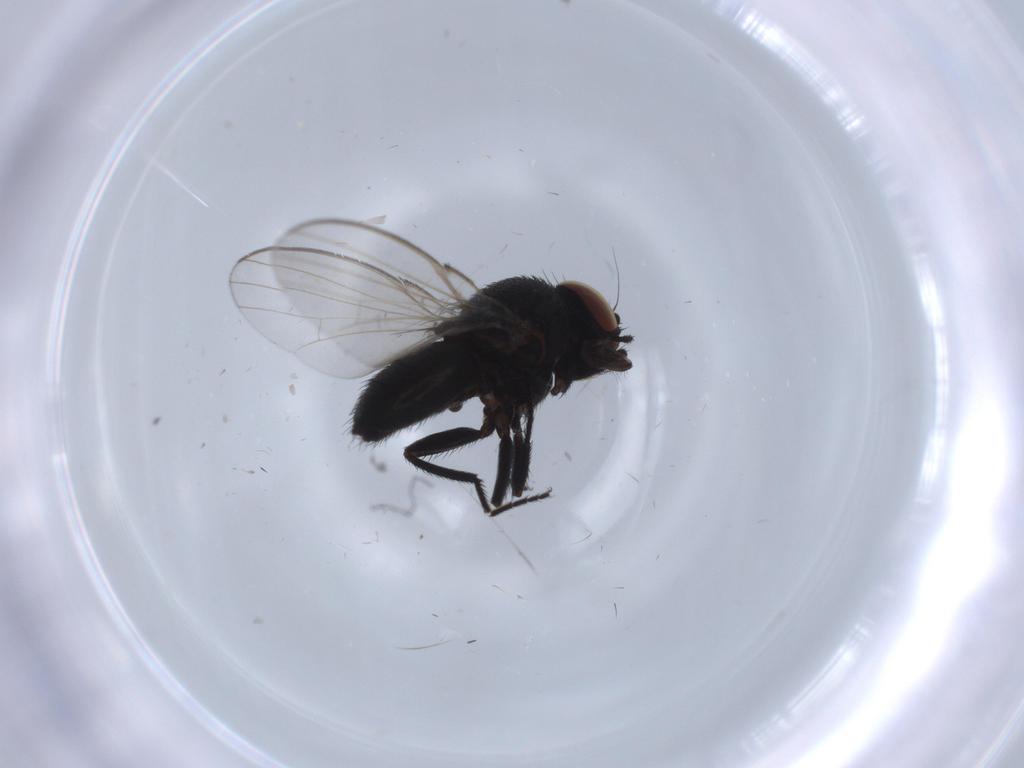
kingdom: Animalia
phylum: Arthropoda
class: Insecta
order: Diptera
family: Milichiidae
